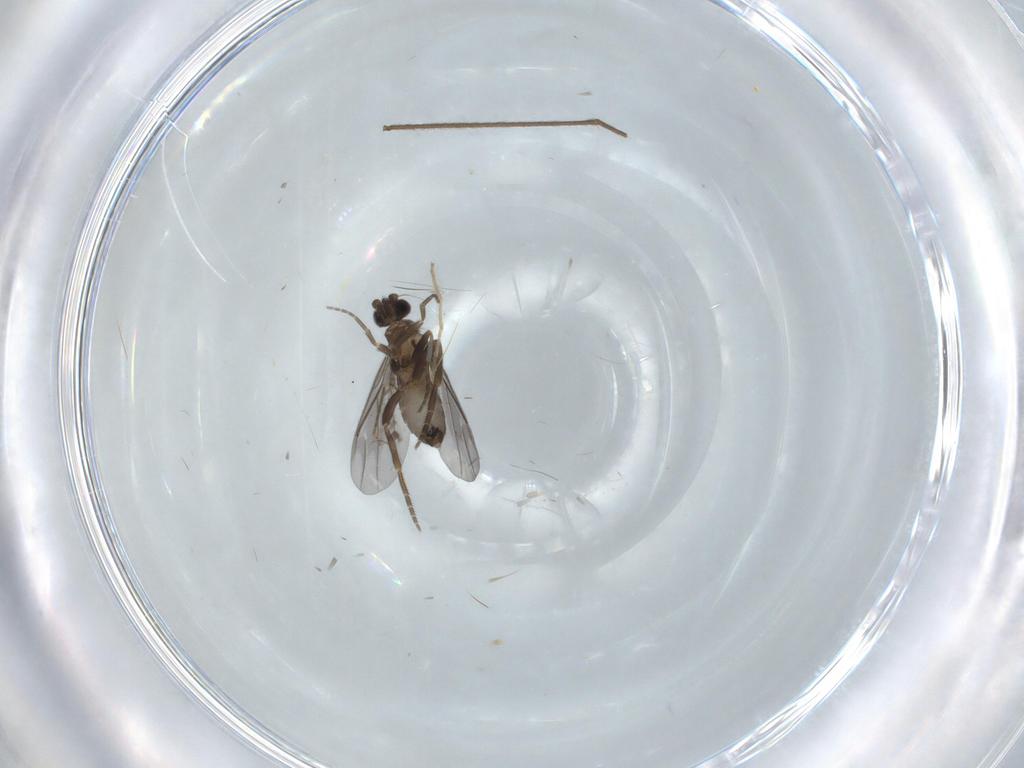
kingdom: Animalia
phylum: Arthropoda
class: Insecta
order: Diptera
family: Phoridae
